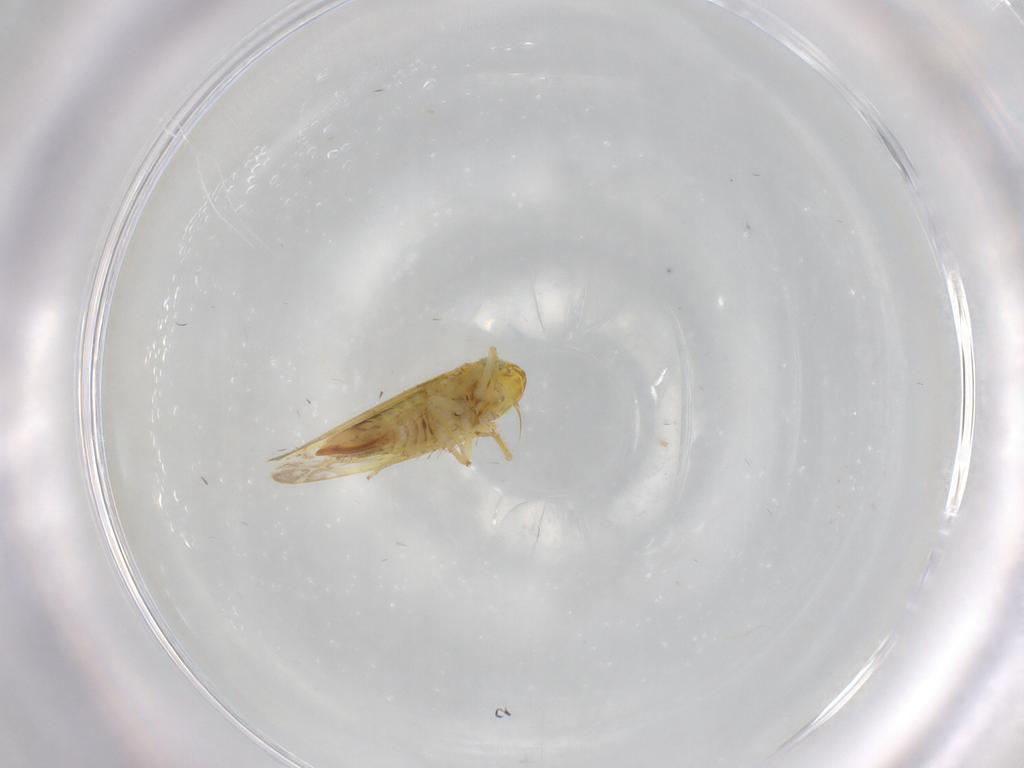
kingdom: Animalia
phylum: Arthropoda
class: Insecta
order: Hemiptera
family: Cicadellidae
